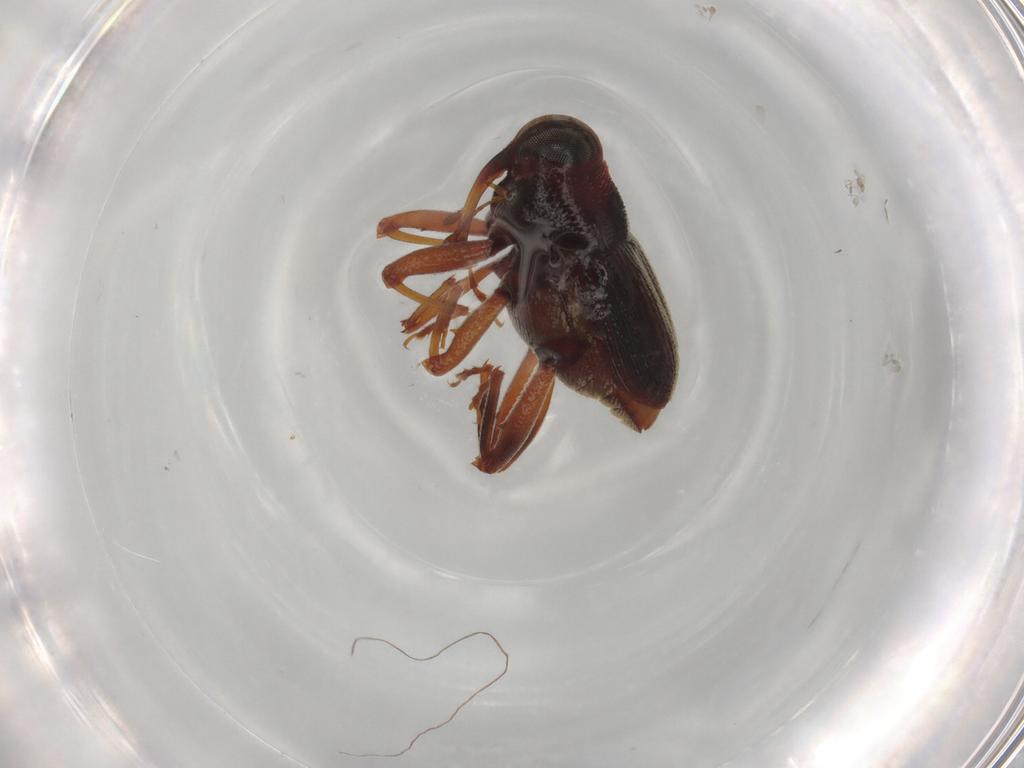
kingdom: Animalia
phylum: Arthropoda
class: Insecta
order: Coleoptera
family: Curculionidae
